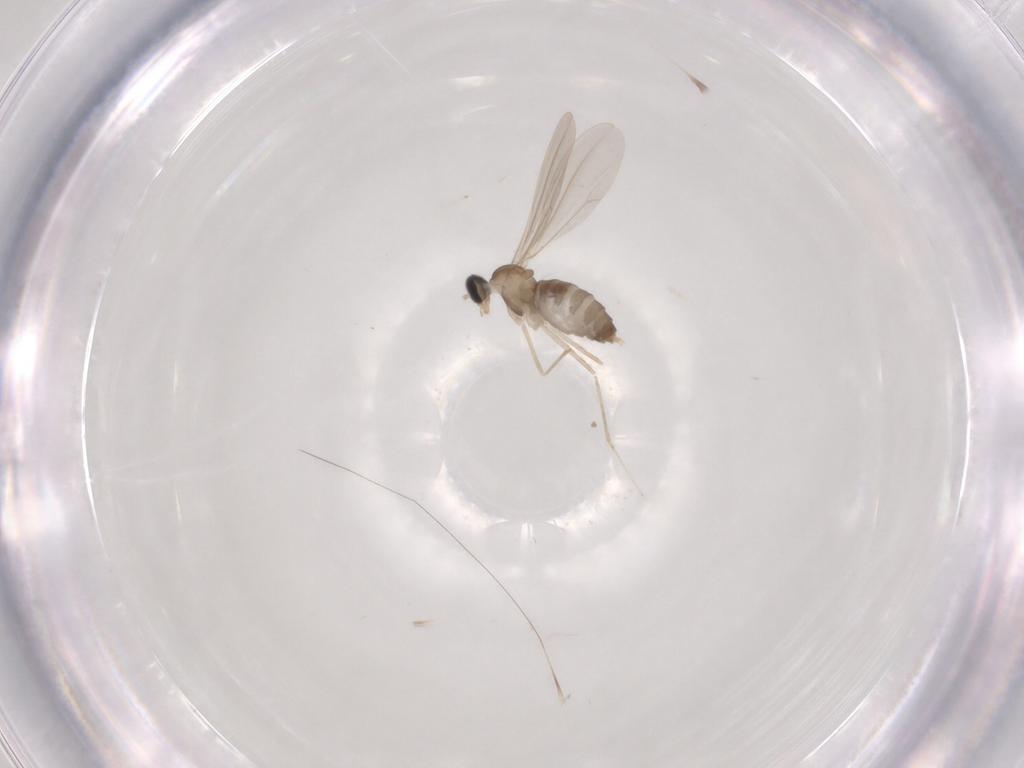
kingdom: Animalia
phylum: Arthropoda
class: Insecta
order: Diptera
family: Cecidomyiidae
